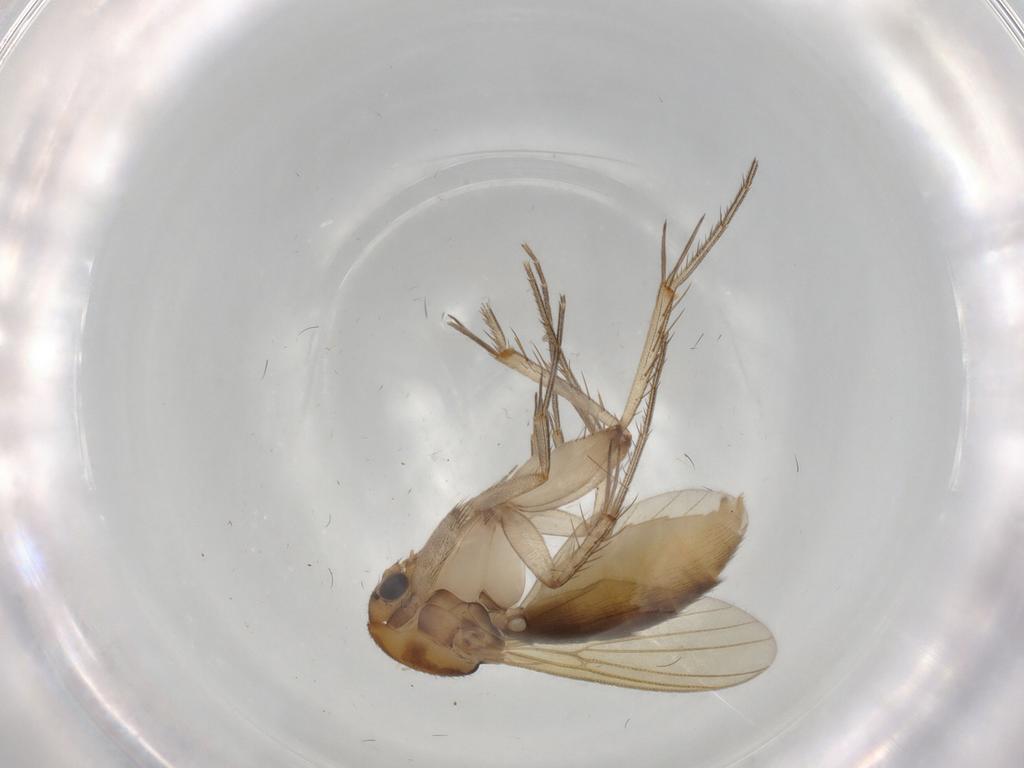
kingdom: Animalia
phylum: Arthropoda
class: Insecta
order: Diptera
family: Mycetophilidae
